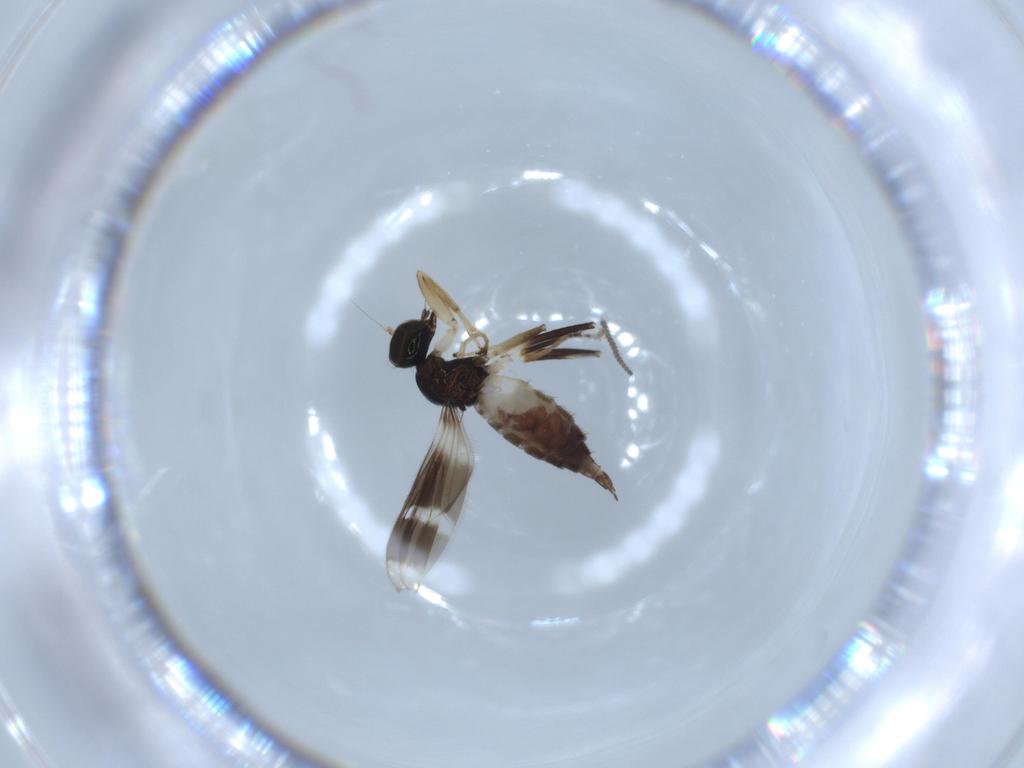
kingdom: Animalia
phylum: Arthropoda
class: Insecta
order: Diptera
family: Hybotidae
